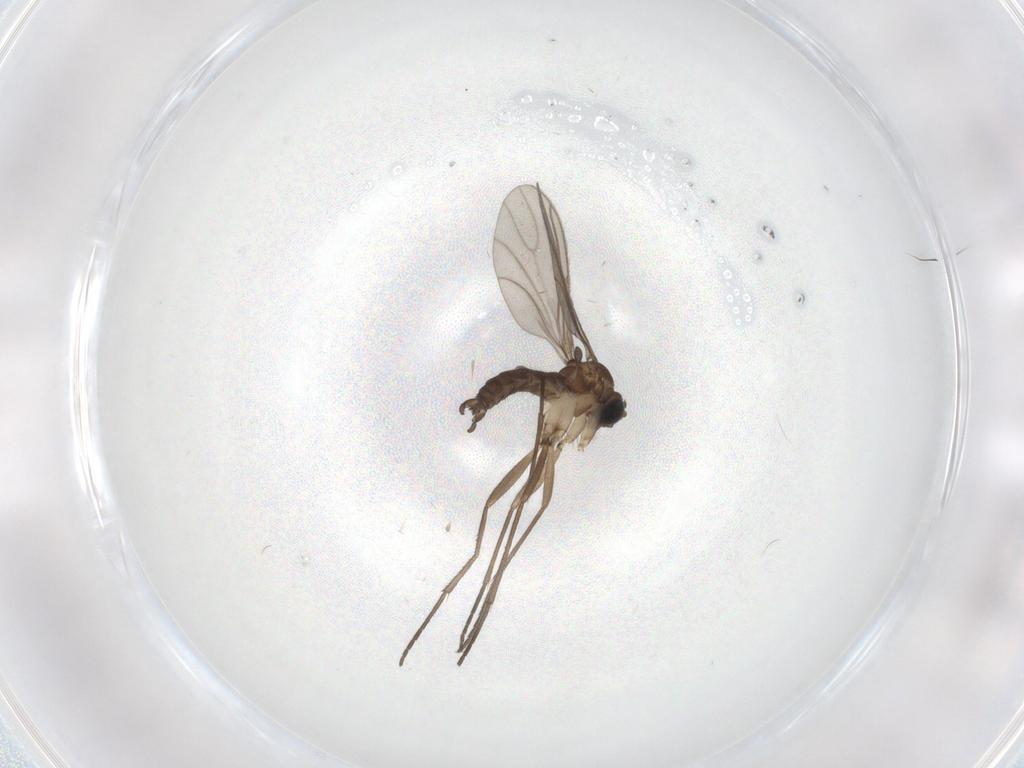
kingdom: Animalia
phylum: Arthropoda
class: Insecta
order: Diptera
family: Sciaridae
